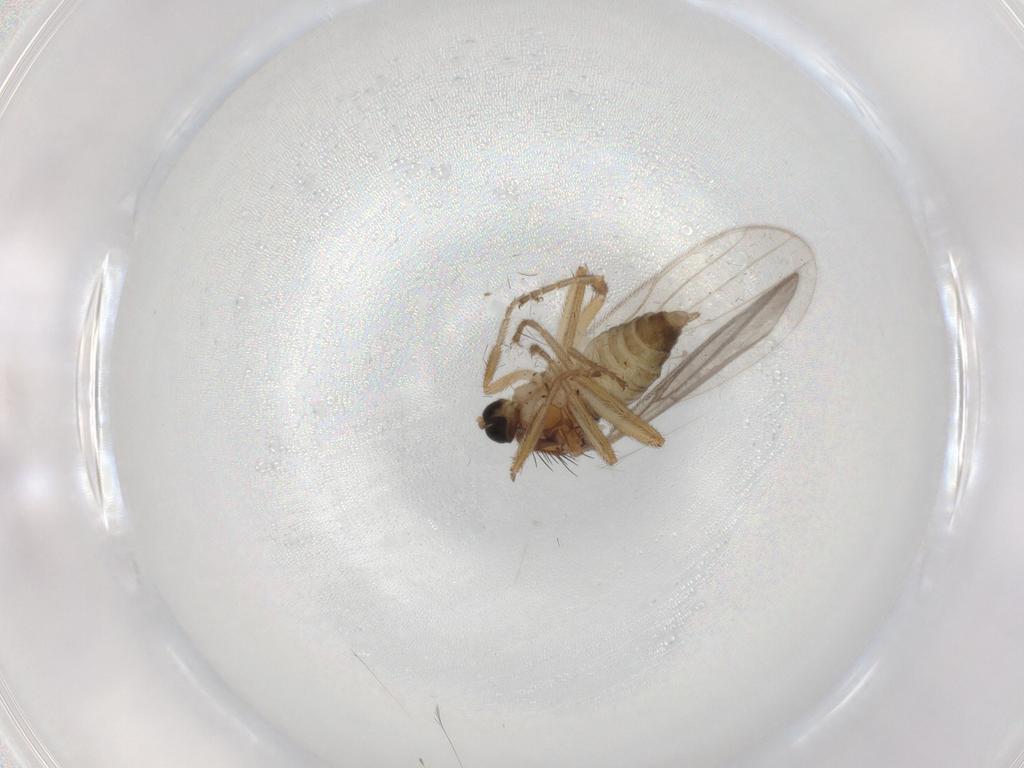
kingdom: Animalia
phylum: Arthropoda
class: Insecta
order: Diptera
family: Hybotidae
